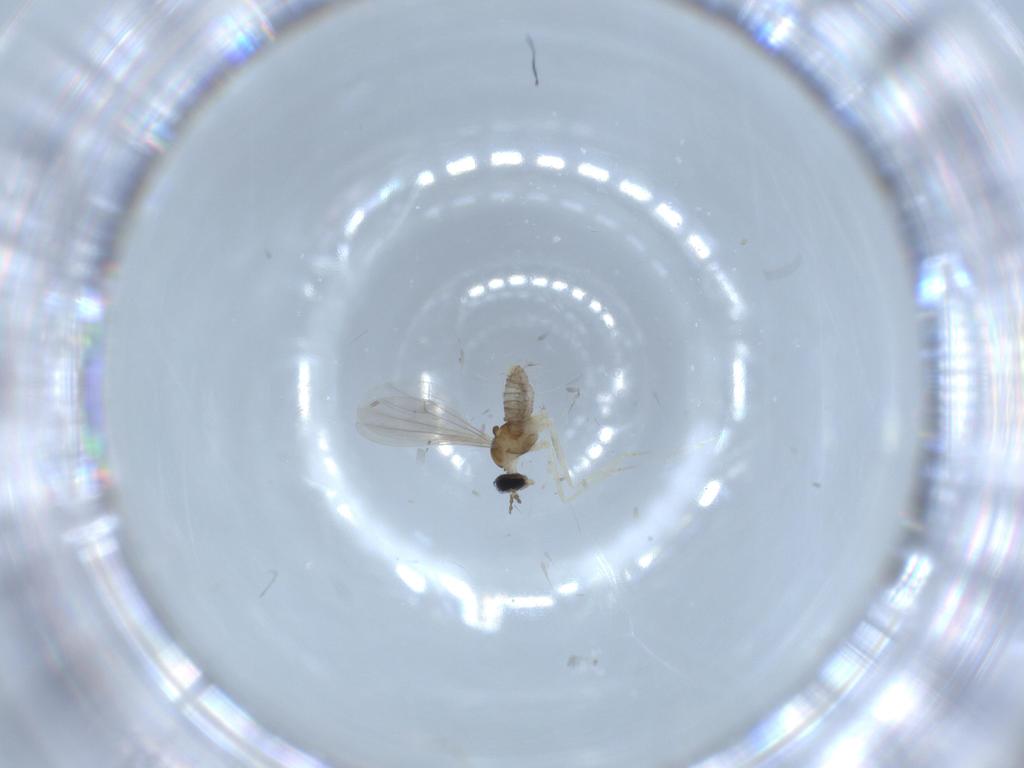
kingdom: Animalia
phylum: Arthropoda
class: Insecta
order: Diptera
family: Cecidomyiidae
